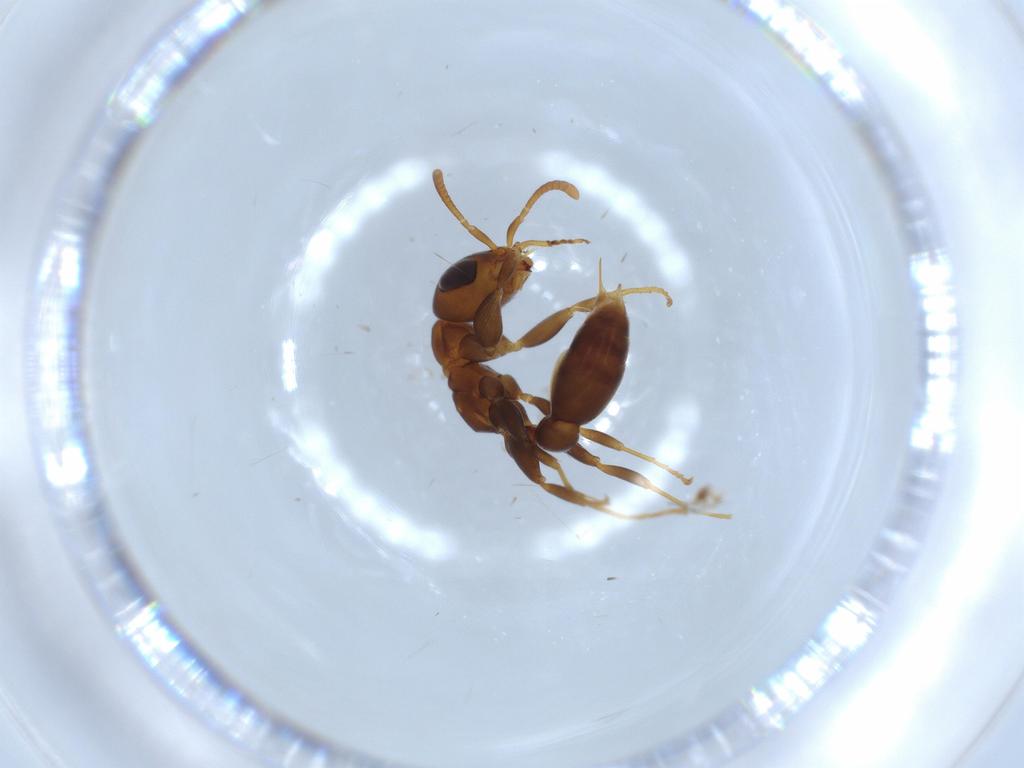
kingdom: Animalia
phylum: Arthropoda
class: Insecta
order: Hymenoptera
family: Formicidae
